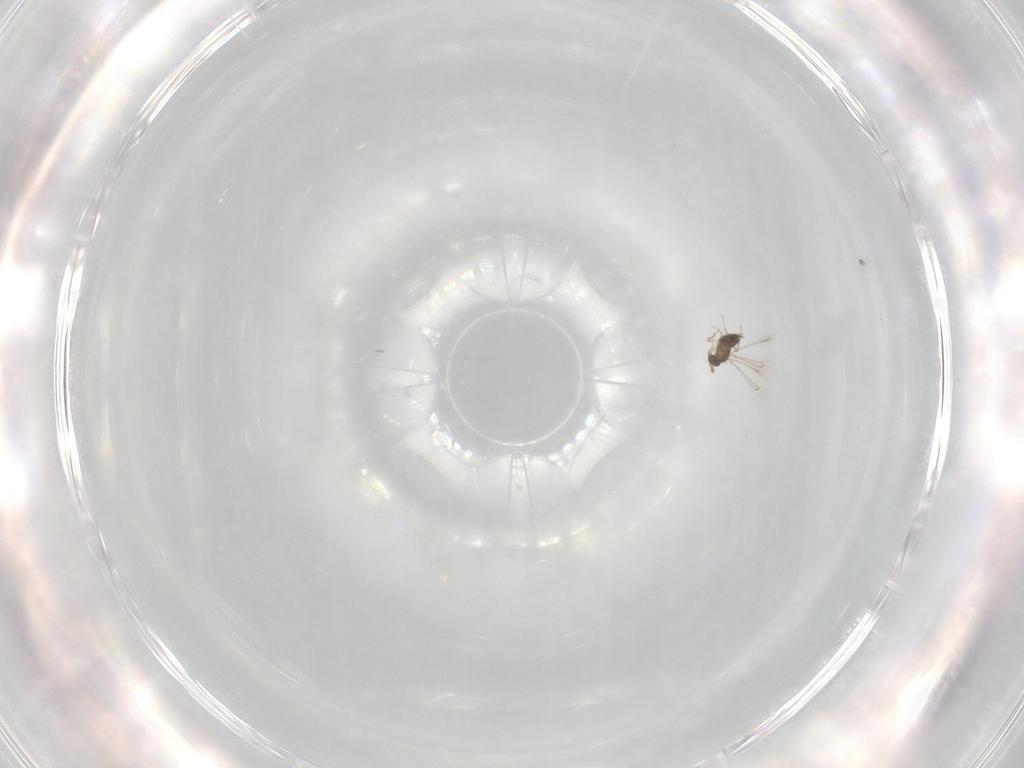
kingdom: Animalia
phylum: Arthropoda
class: Insecta
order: Hymenoptera
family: Mymaridae
